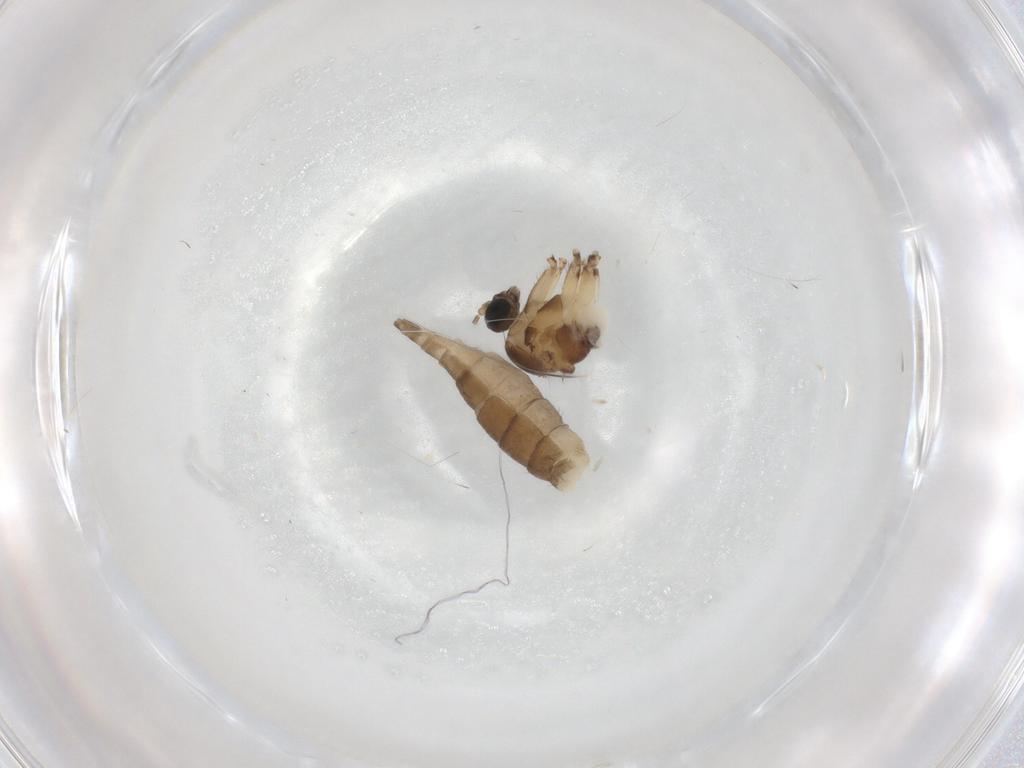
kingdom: Animalia
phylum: Arthropoda
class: Insecta
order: Diptera
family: Sciaridae
